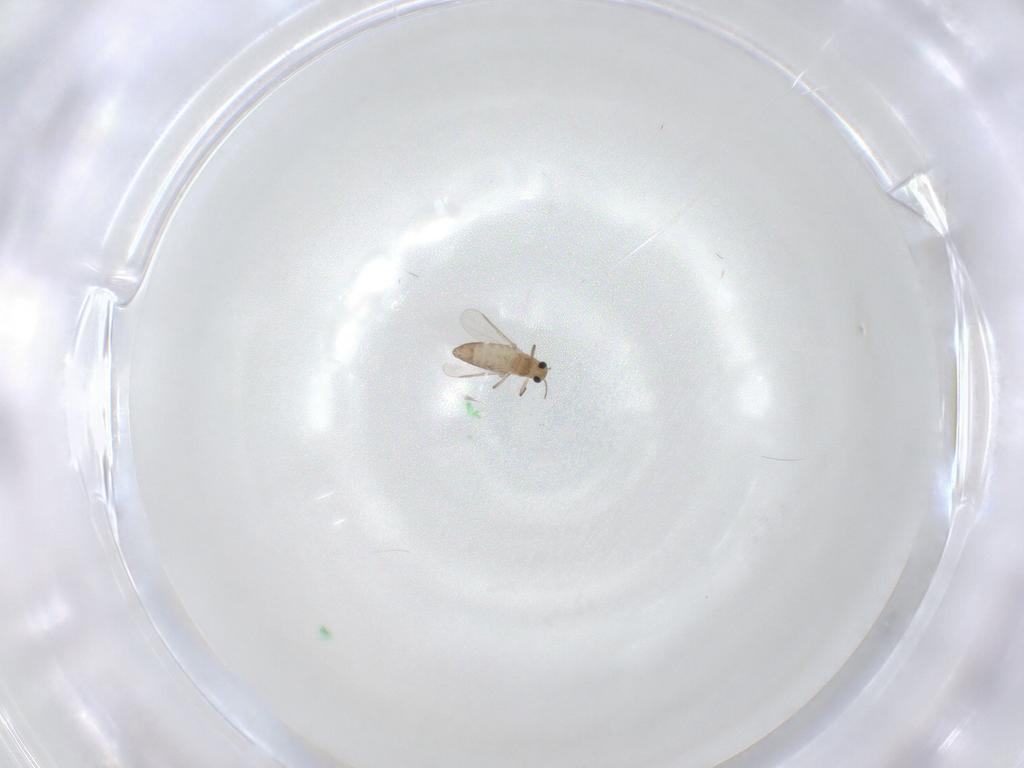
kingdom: Animalia
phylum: Arthropoda
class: Insecta
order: Diptera
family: Chironomidae
